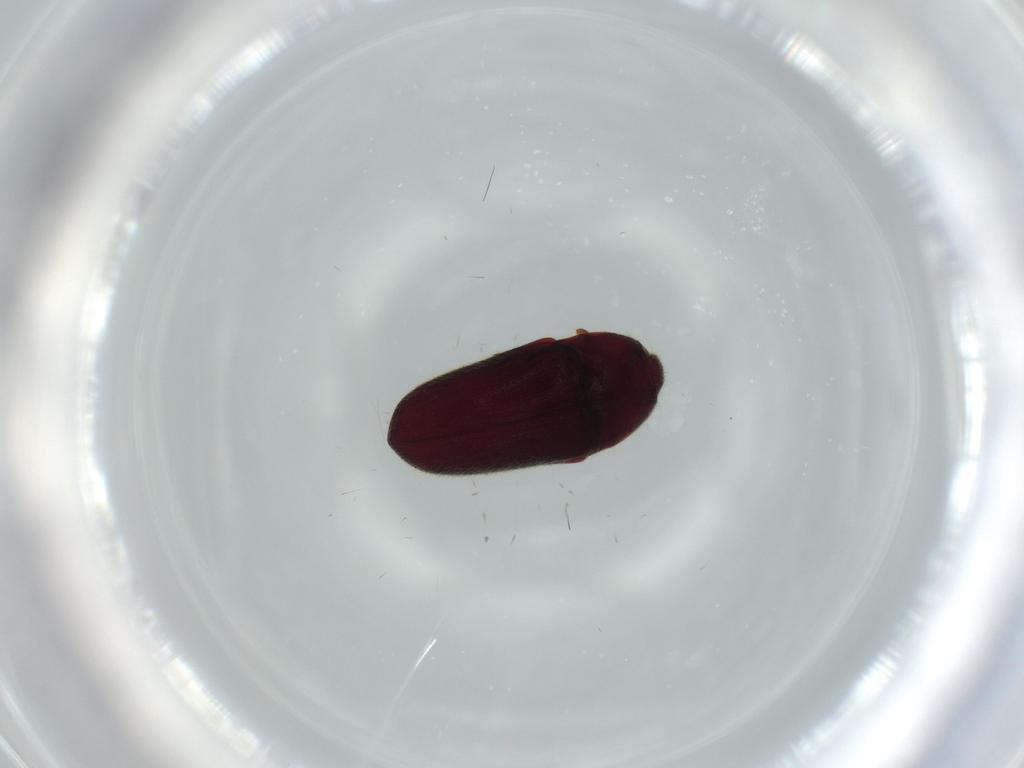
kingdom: Animalia
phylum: Arthropoda
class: Insecta
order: Coleoptera
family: Throscidae
